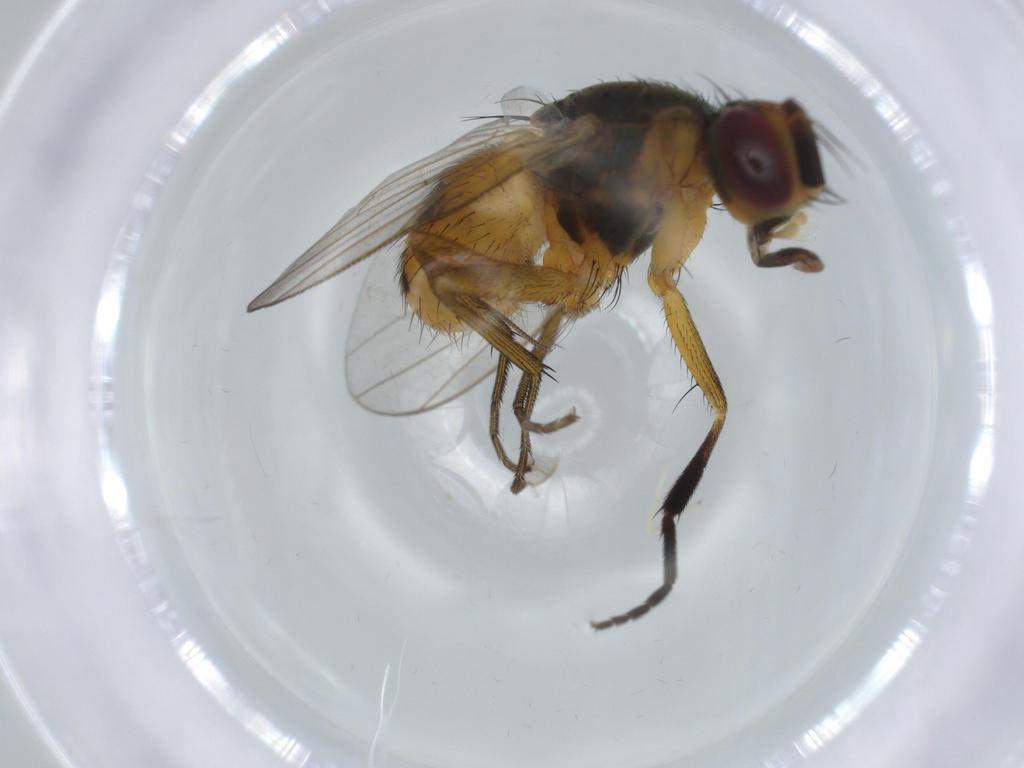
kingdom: Animalia
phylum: Arthropoda
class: Insecta
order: Diptera
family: Muscidae
